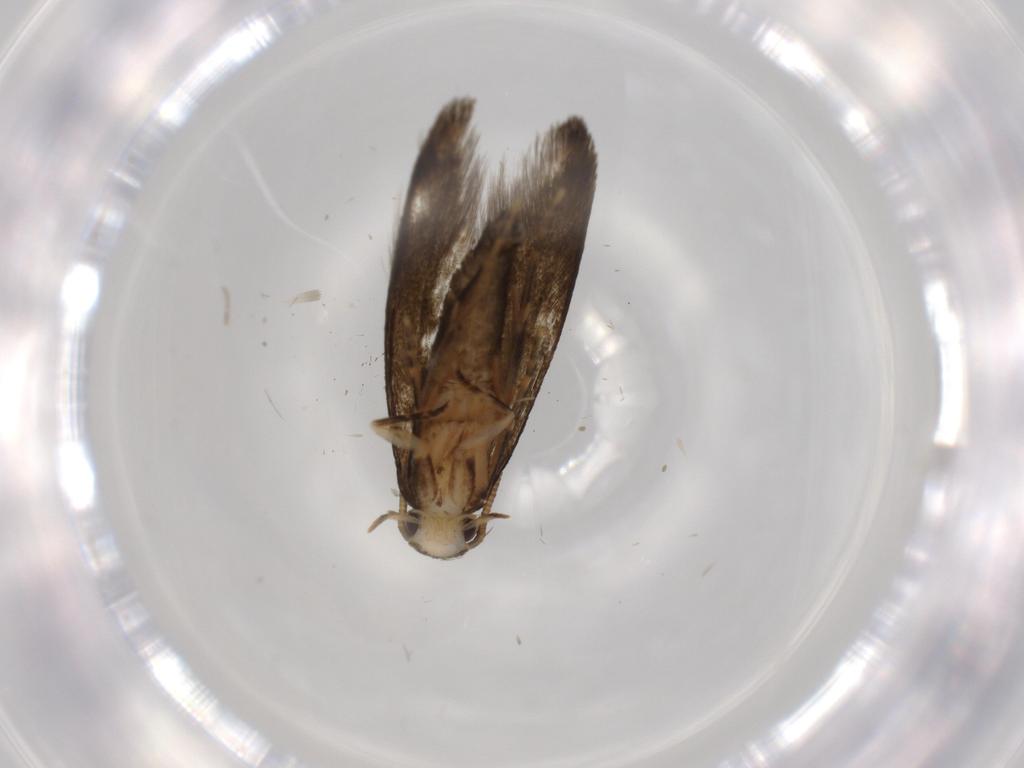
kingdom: Animalia
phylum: Arthropoda
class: Insecta
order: Lepidoptera
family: Tineidae
